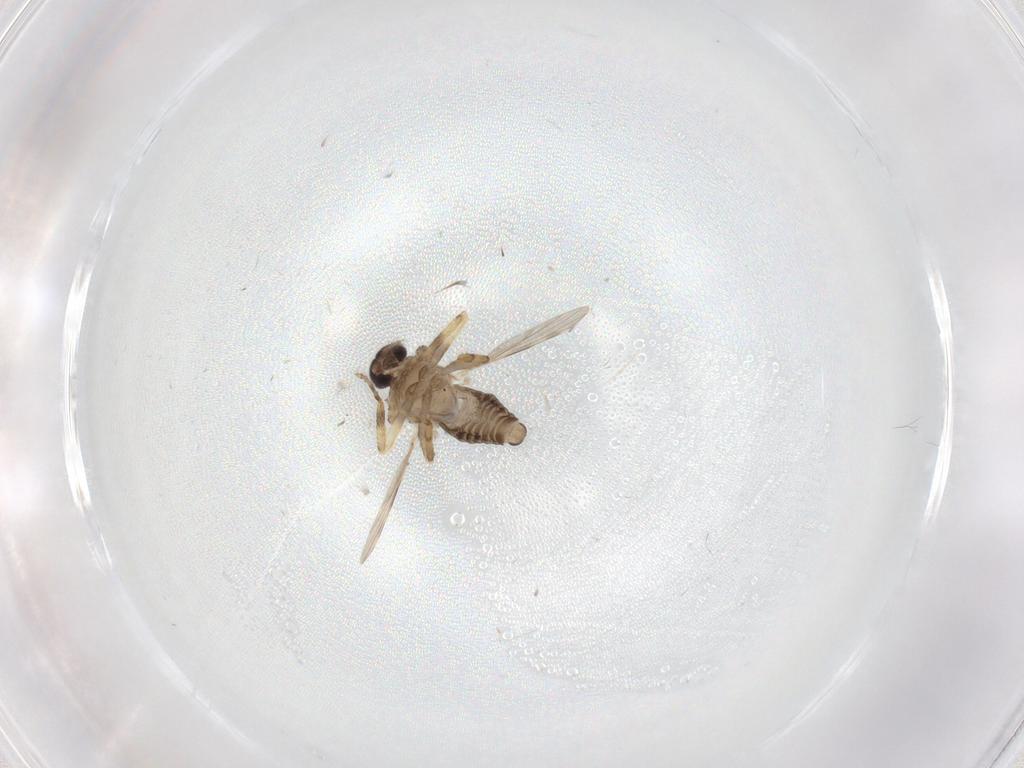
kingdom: Animalia
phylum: Arthropoda
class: Insecta
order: Diptera
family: Ceratopogonidae
